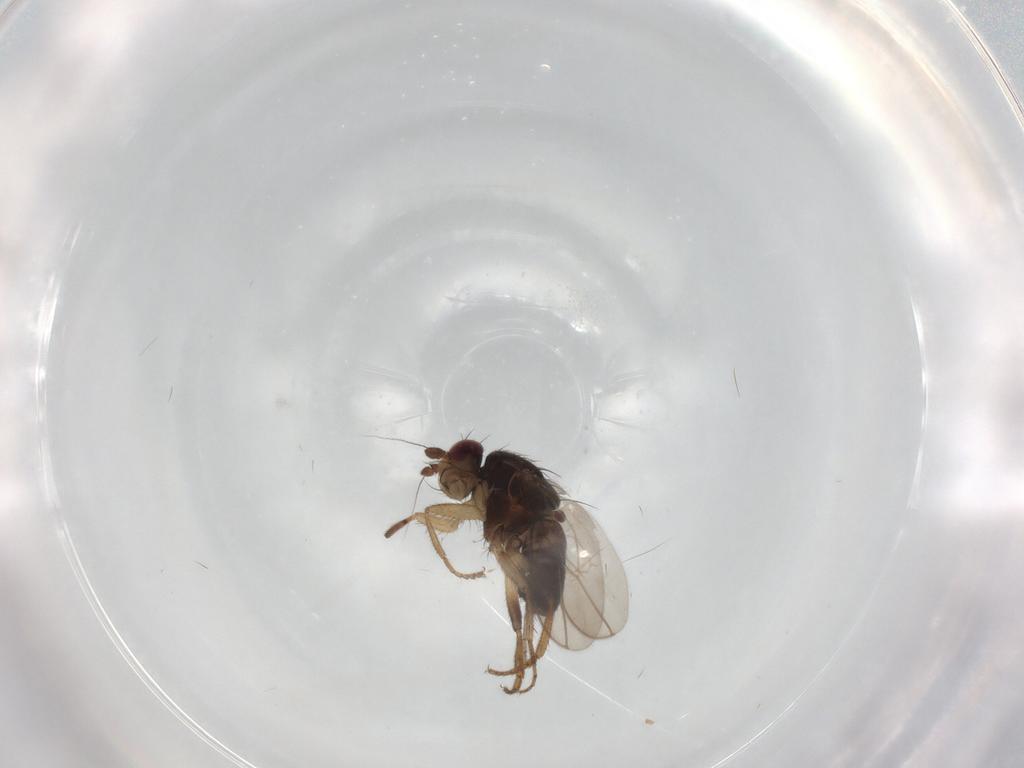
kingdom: Animalia
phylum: Arthropoda
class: Insecta
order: Diptera
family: Sphaeroceridae
